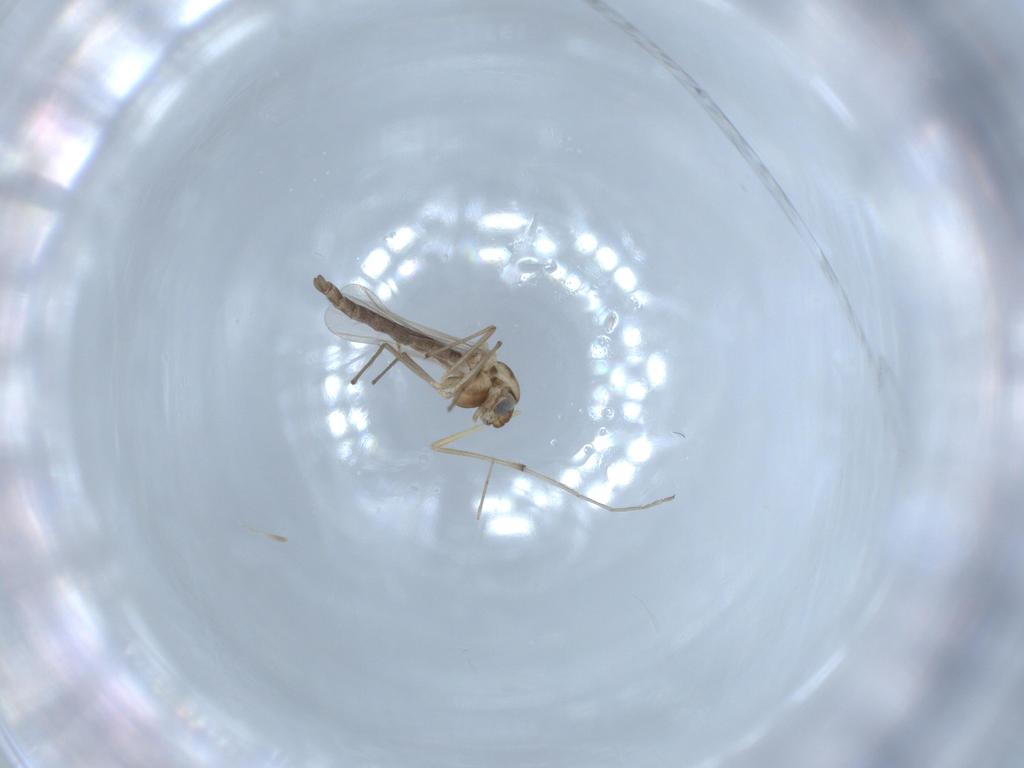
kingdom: Animalia
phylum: Arthropoda
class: Insecta
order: Diptera
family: Chironomidae
